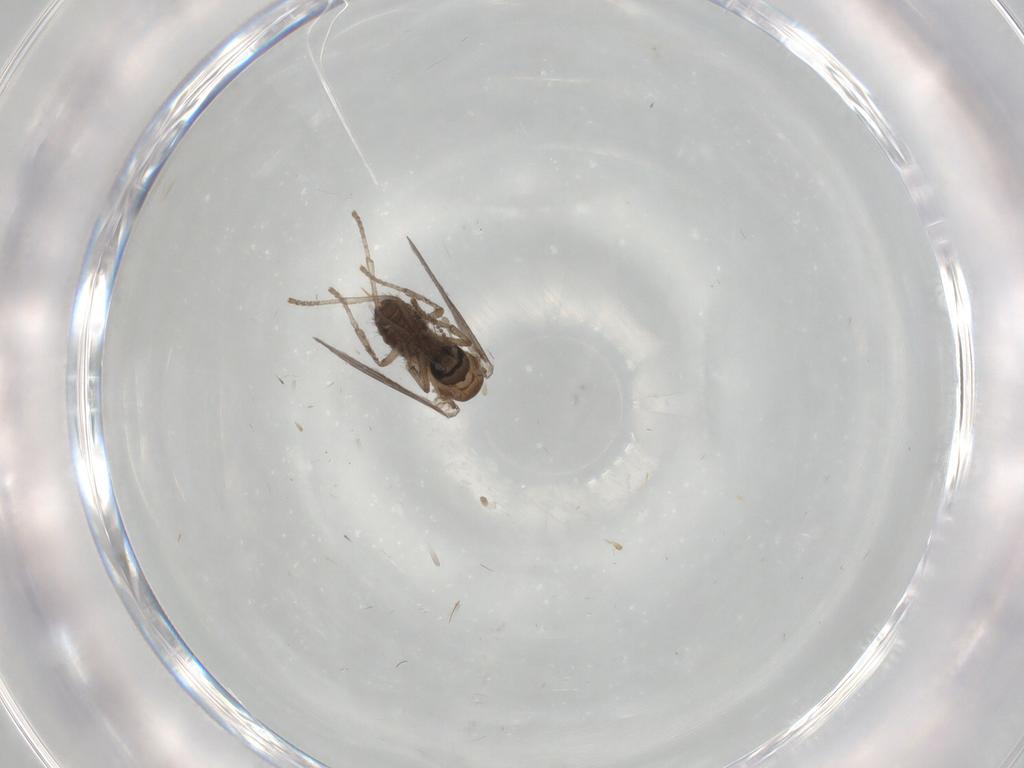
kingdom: Animalia
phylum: Arthropoda
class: Insecta
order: Diptera
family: Psychodidae
